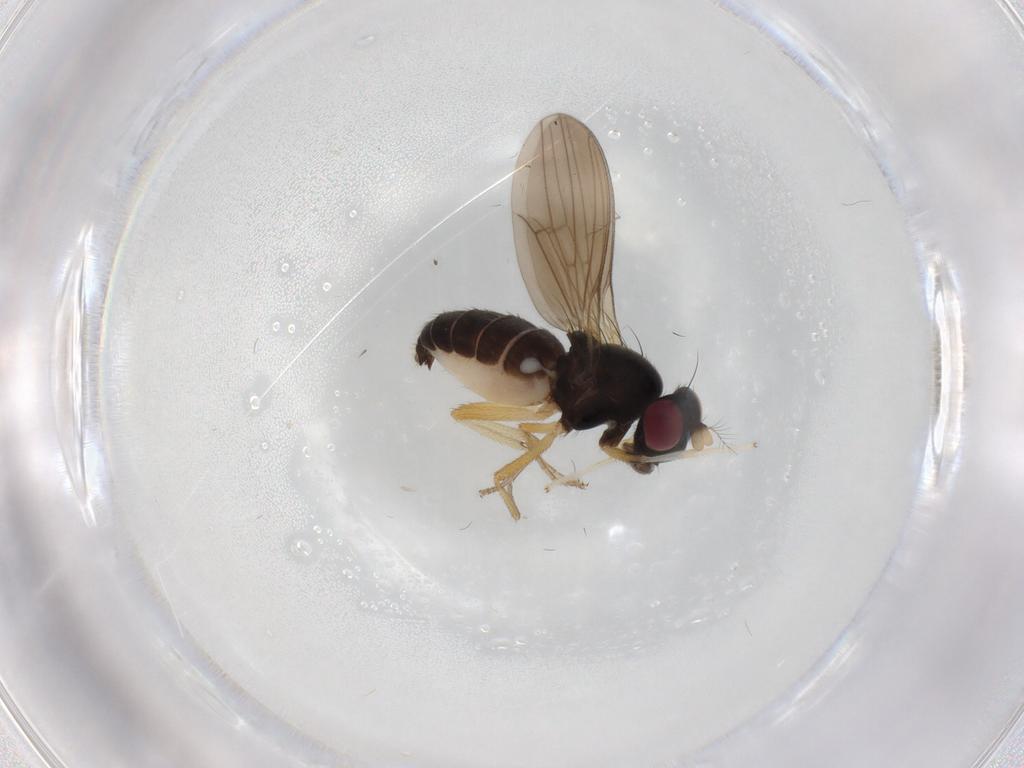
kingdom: Animalia
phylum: Arthropoda
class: Insecta
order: Diptera
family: Lauxaniidae
